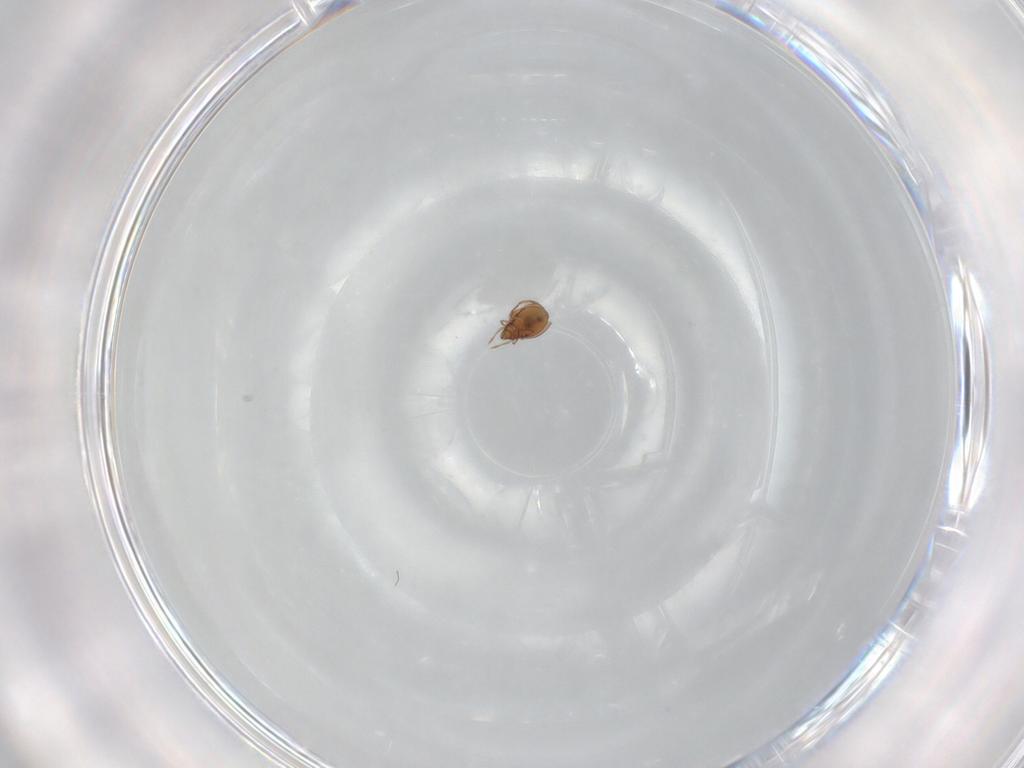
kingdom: Animalia
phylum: Arthropoda
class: Arachnida
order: Sarcoptiformes
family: Oribatulidae
